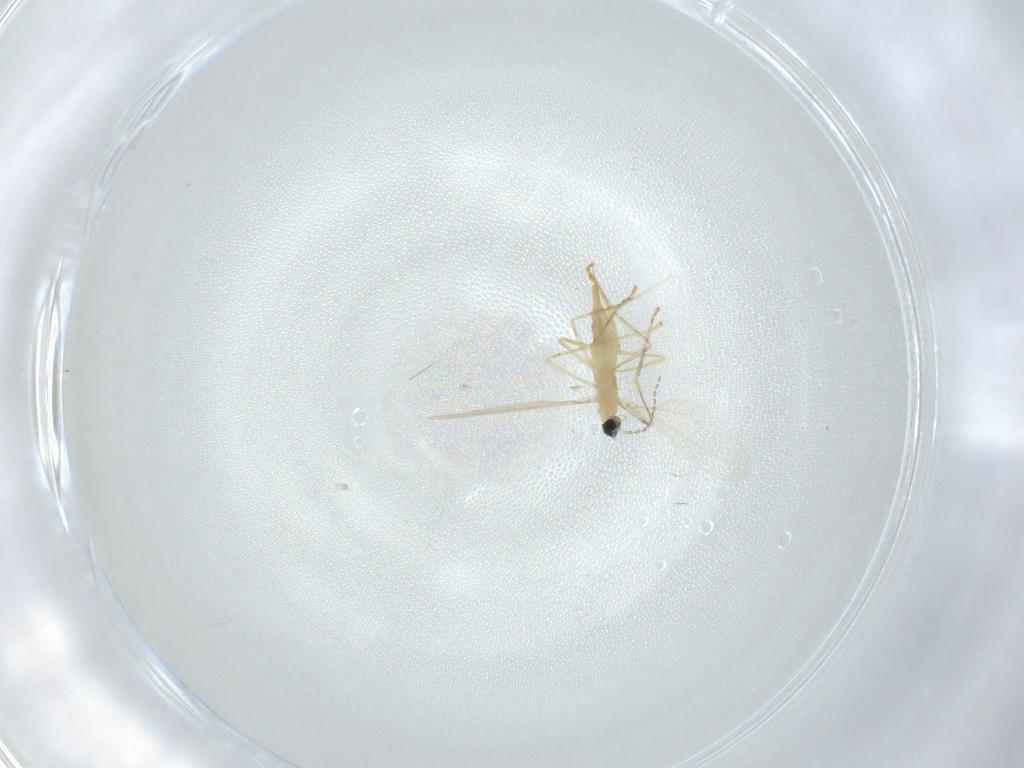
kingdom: Animalia
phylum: Arthropoda
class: Insecta
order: Diptera
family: Cecidomyiidae
